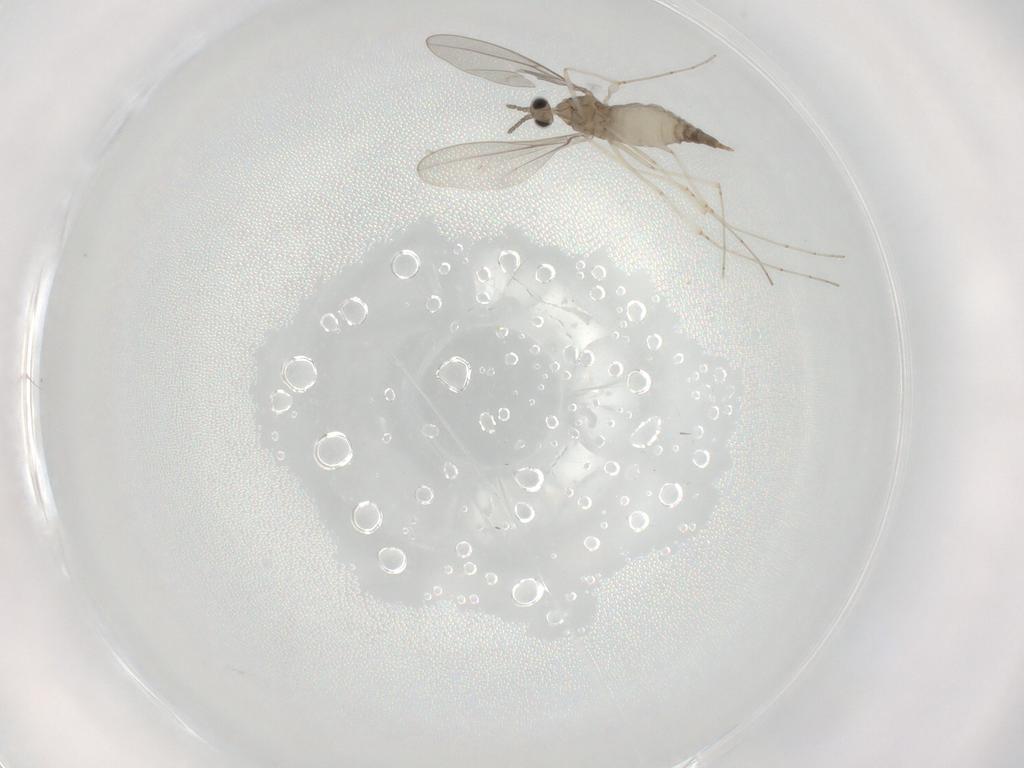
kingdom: Animalia
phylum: Arthropoda
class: Insecta
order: Diptera
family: Cecidomyiidae
